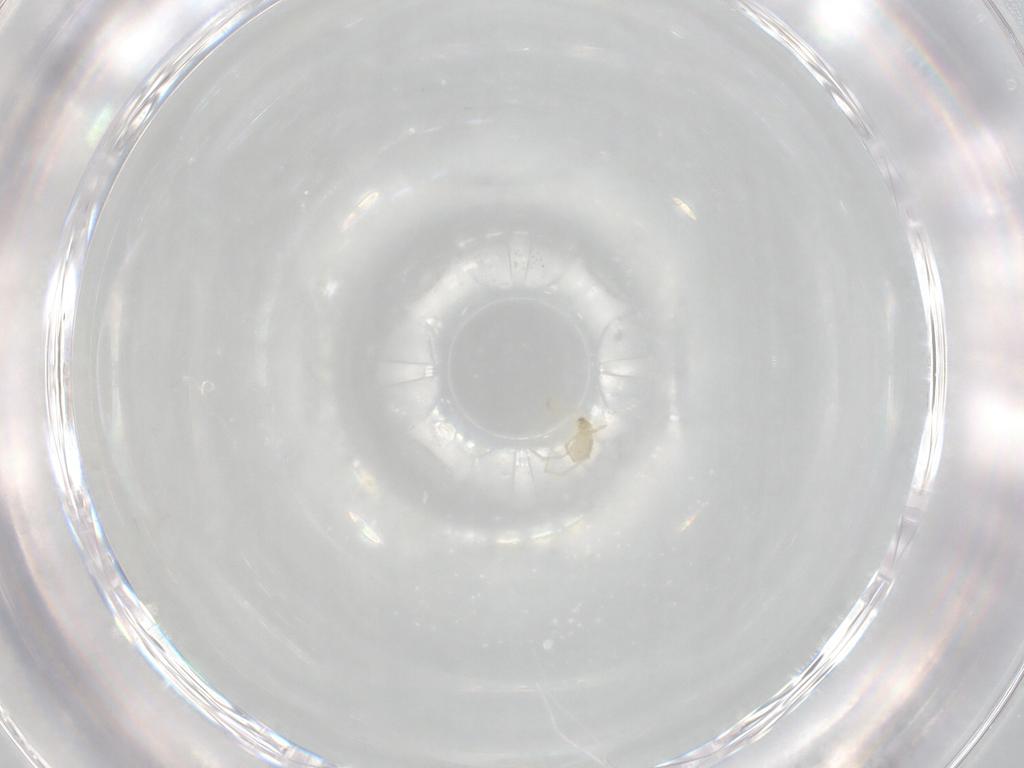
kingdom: Animalia
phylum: Arthropoda
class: Arachnida
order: Trombidiformes
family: Erythraeidae
